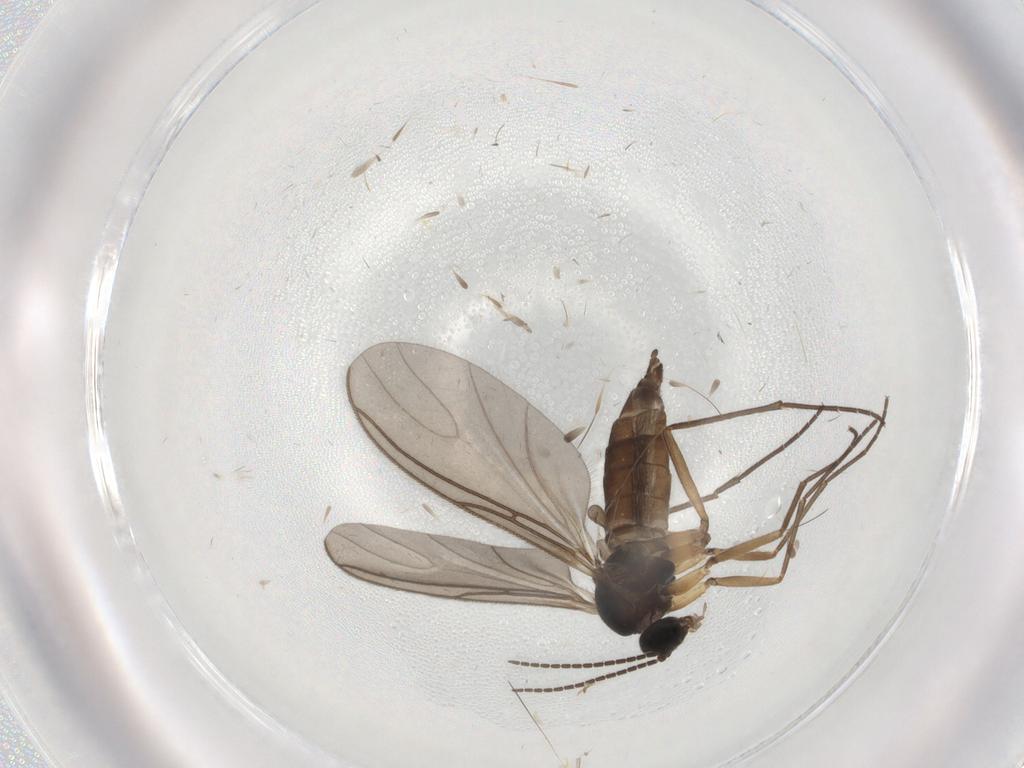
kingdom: Animalia
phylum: Arthropoda
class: Insecta
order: Diptera
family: Sciaridae
